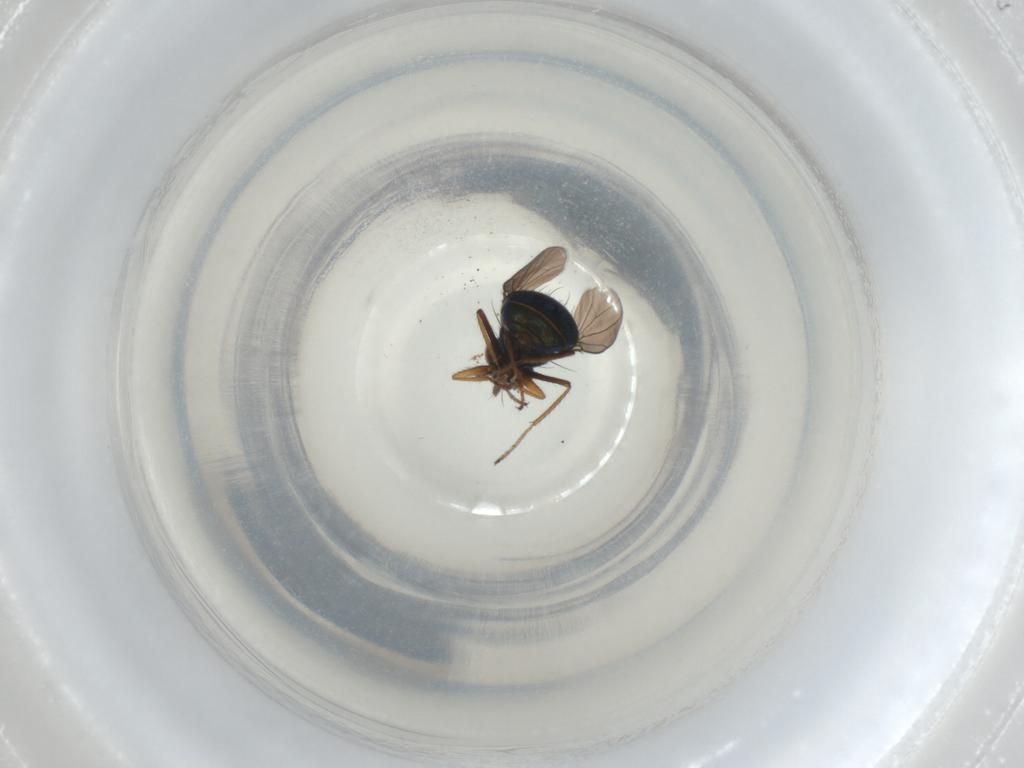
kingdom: Animalia
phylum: Arthropoda
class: Insecta
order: Diptera
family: Ephydridae
